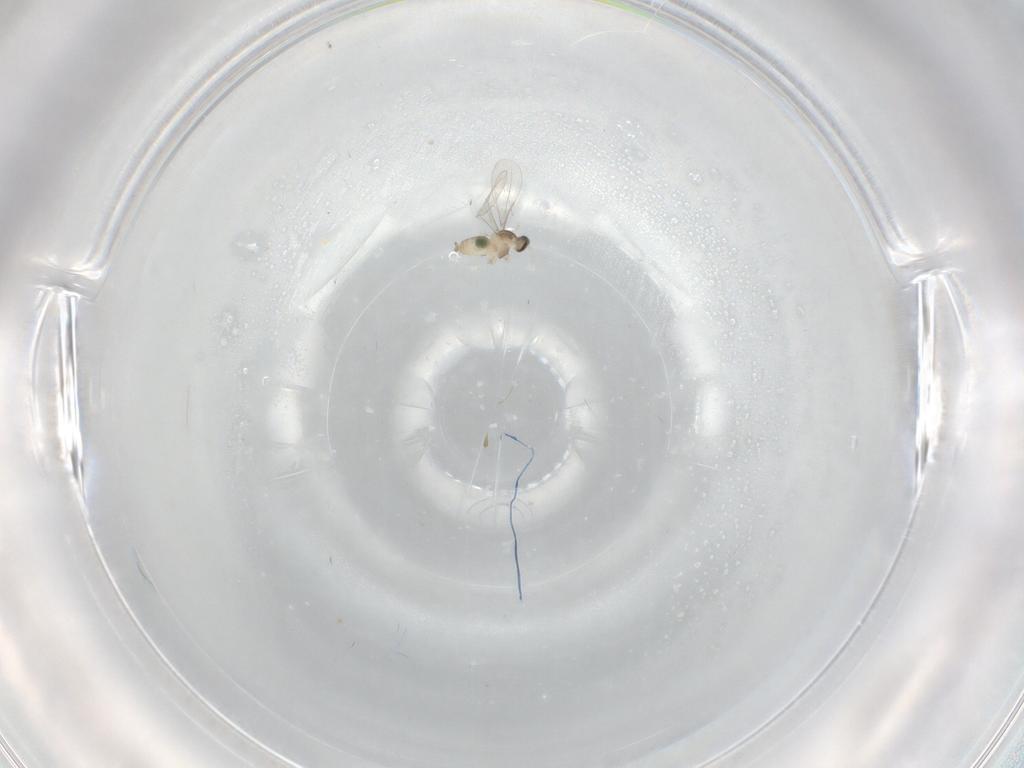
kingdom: Animalia
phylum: Arthropoda
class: Insecta
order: Diptera
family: Cecidomyiidae
